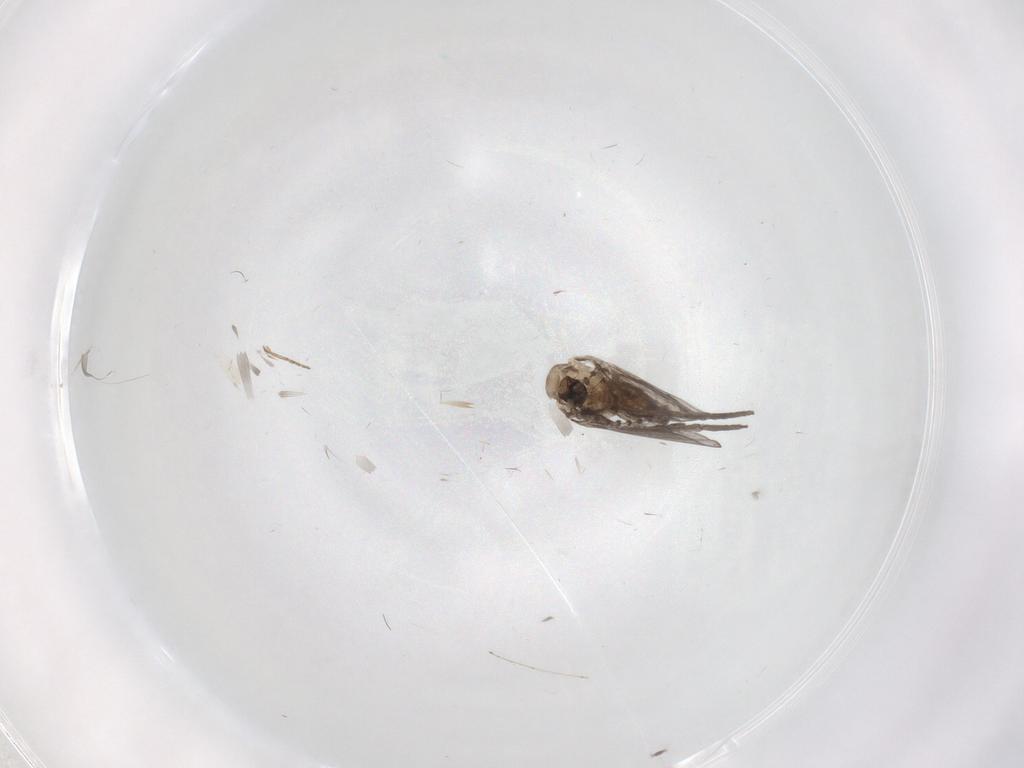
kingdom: Animalia
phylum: Arthropoda
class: Insecta
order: Diptera
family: Psychodidae
